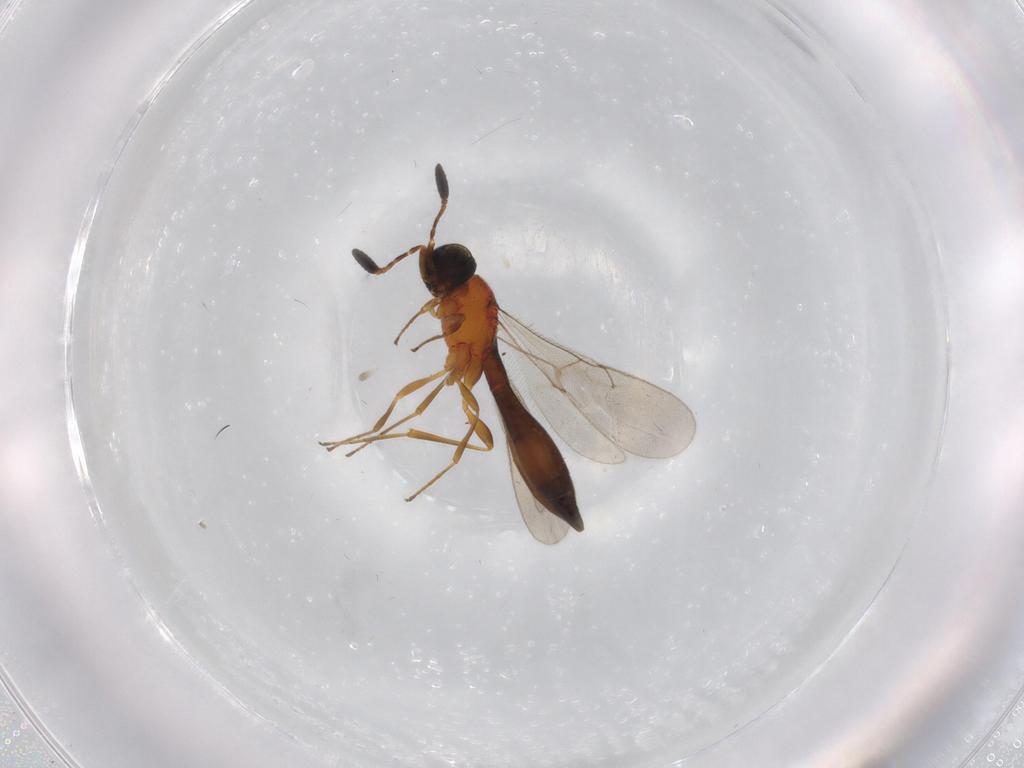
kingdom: Animalia
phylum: Arthropoda
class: Insecta
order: Hymenoptera
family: Scelionidae
